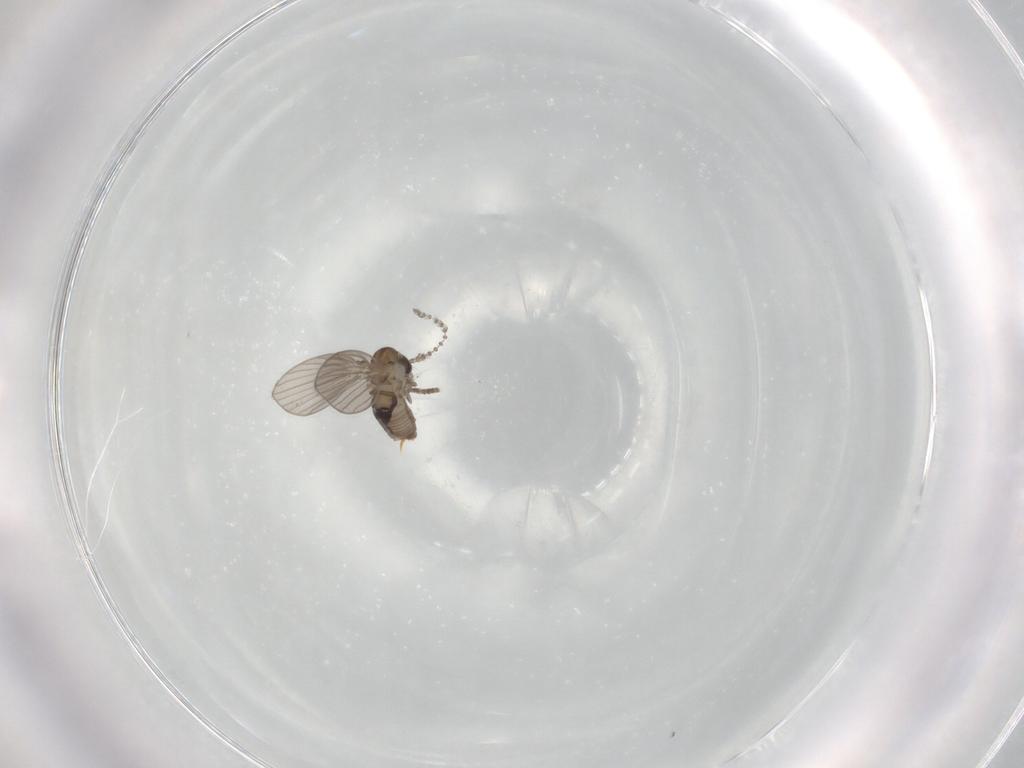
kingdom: Animalia
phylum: Arthropoda
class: Insecta
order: Diptera
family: Psychodidae
